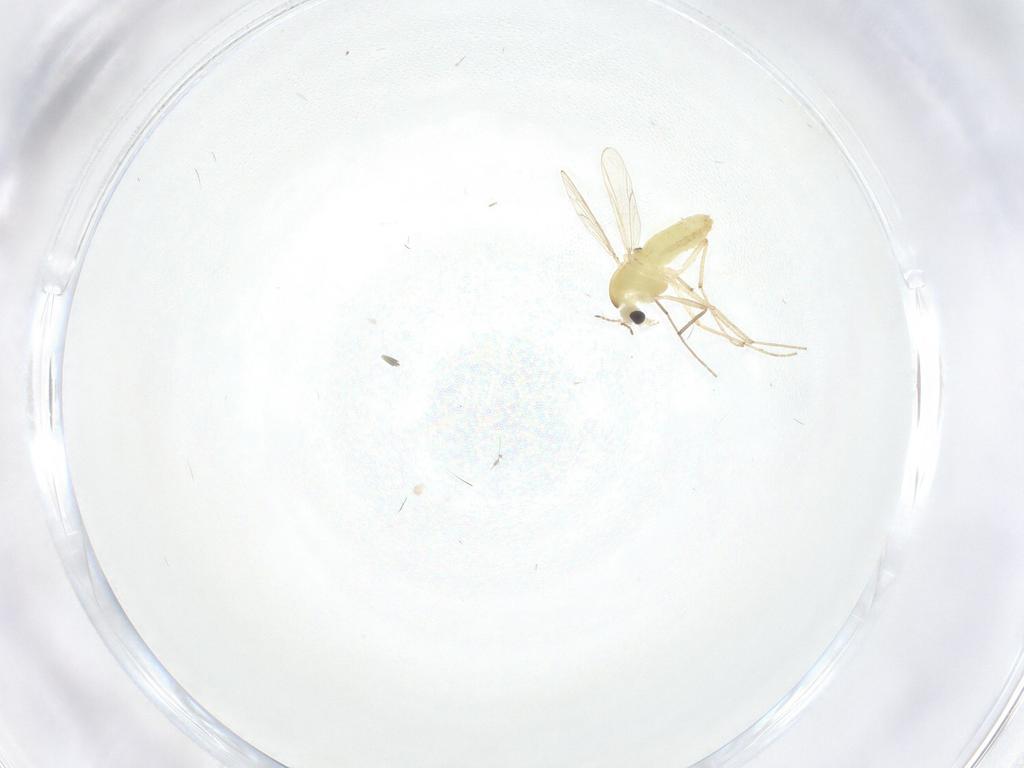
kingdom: Animalia
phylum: Arthropoda
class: Insecta
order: Diptera
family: Chironomidae
